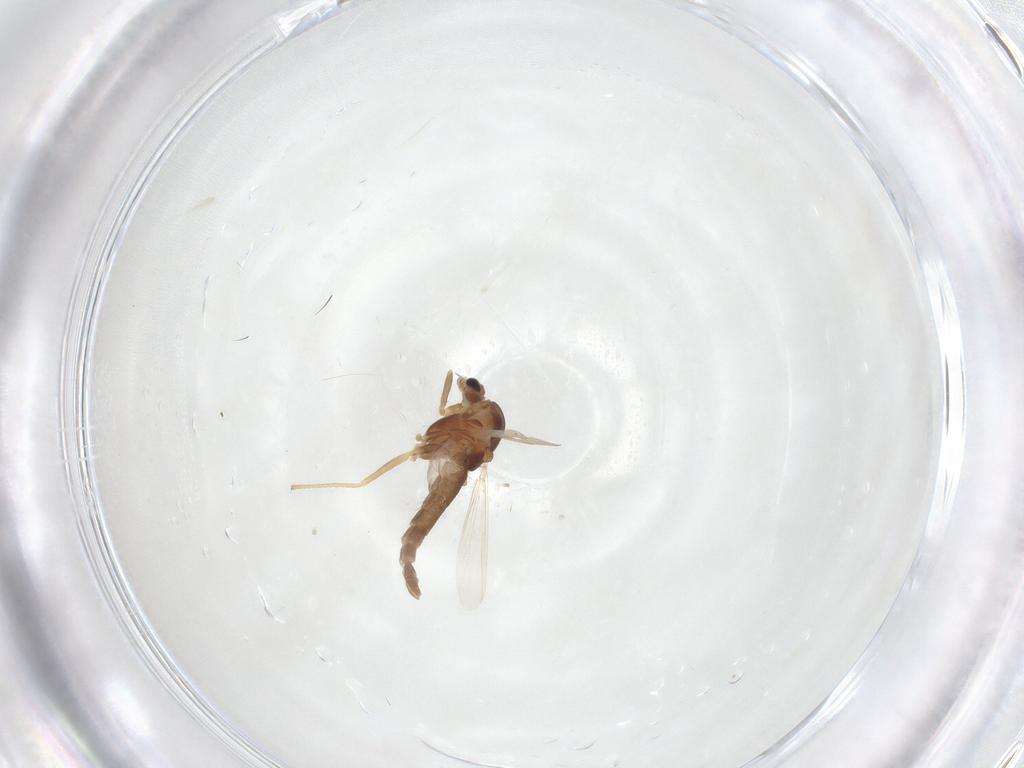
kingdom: Animalia
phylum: Arthropoda
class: Insecta
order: Diptera
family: Chironomidae
